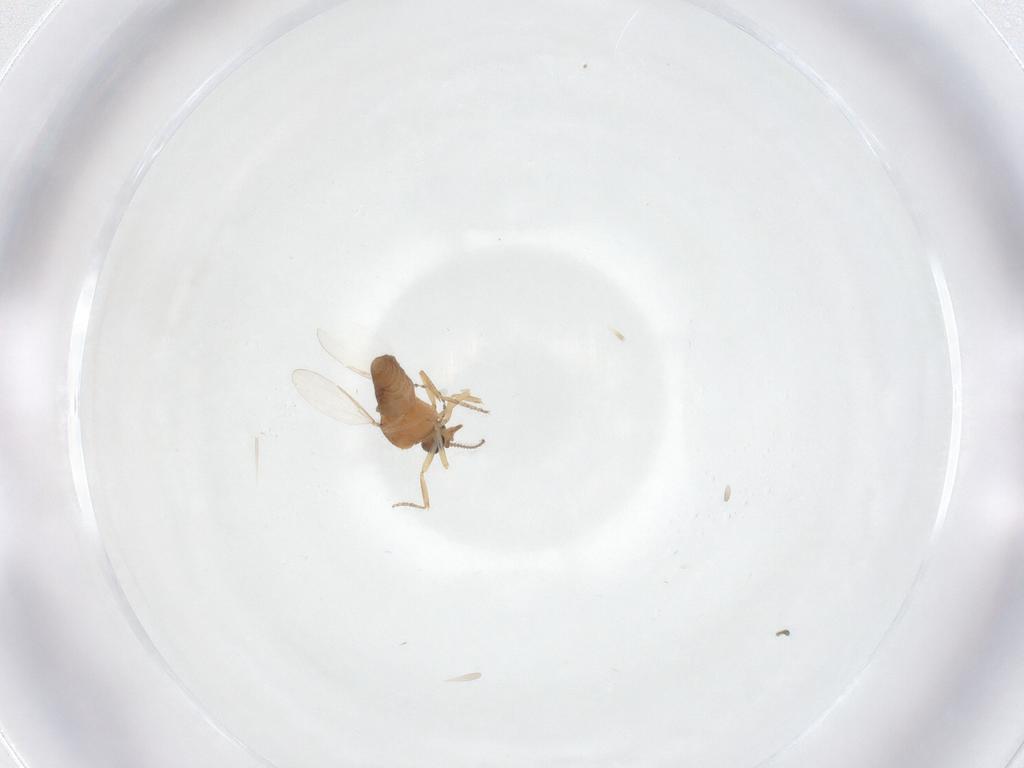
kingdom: Animalia
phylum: Arthropoda
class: Insecta
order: Diptera
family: Ceratopogonidae
